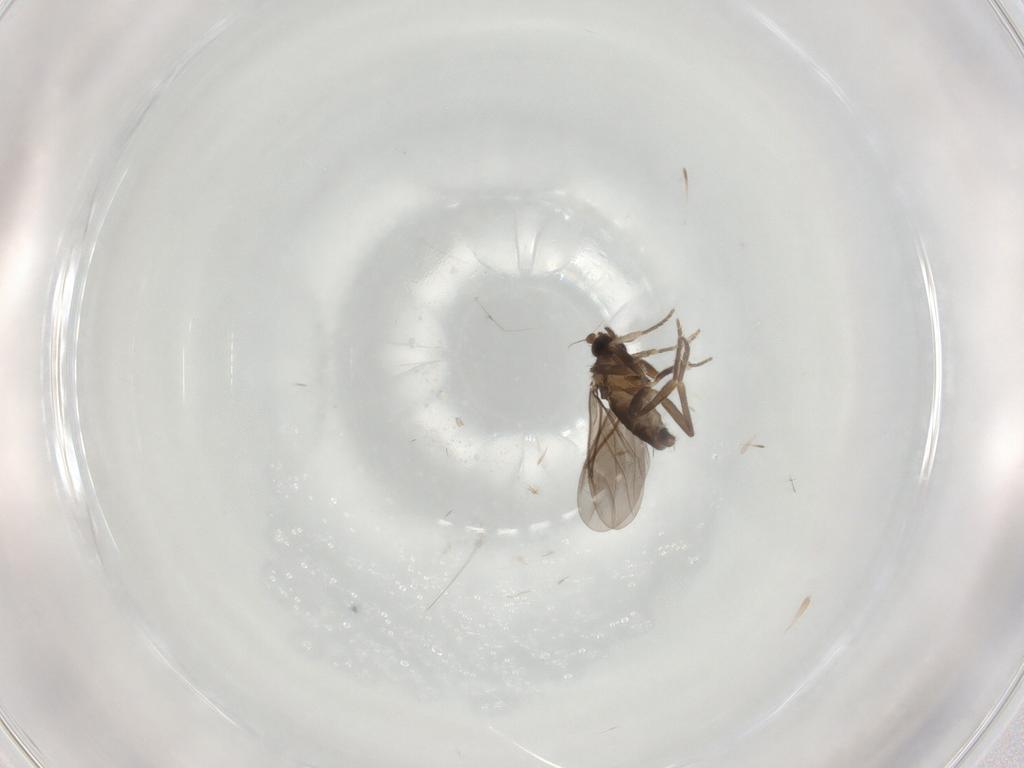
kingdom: Animalia
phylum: Arthropoda
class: Insecta
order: Diptera
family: Phoridae
